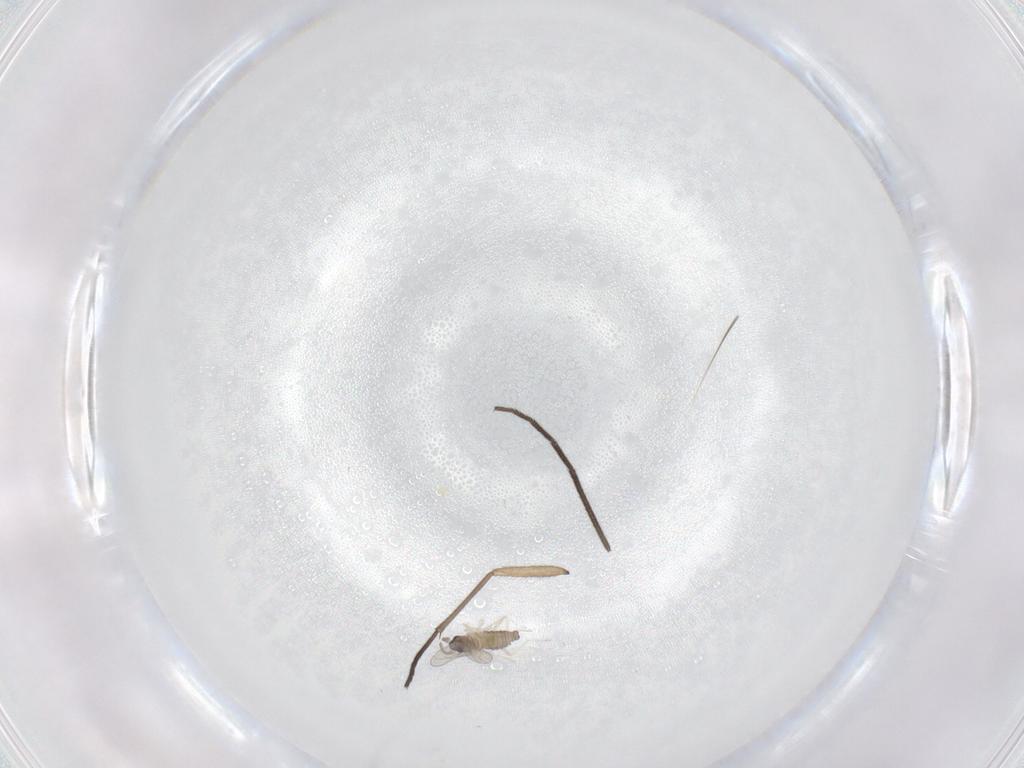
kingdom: Animalia
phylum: Arthropoda
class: Insecta
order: Diptera
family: Cecidomyiidae
